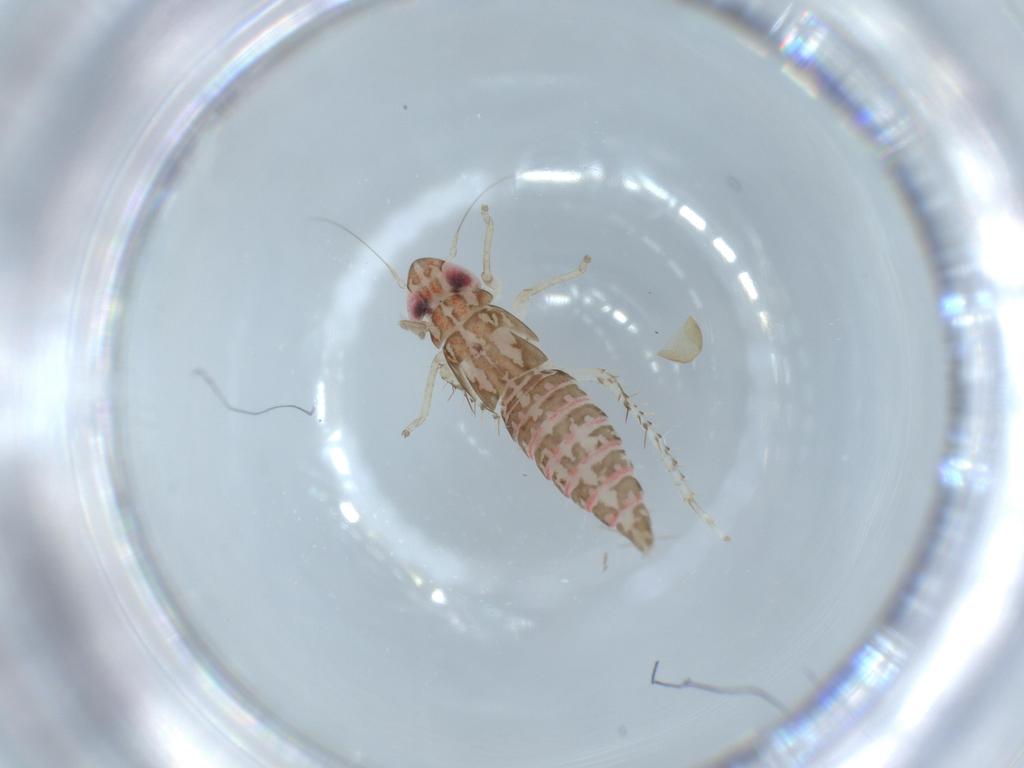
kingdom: Animalia
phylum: Arthropoda
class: Insecta
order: Hemiptera
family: Cicadellidae
